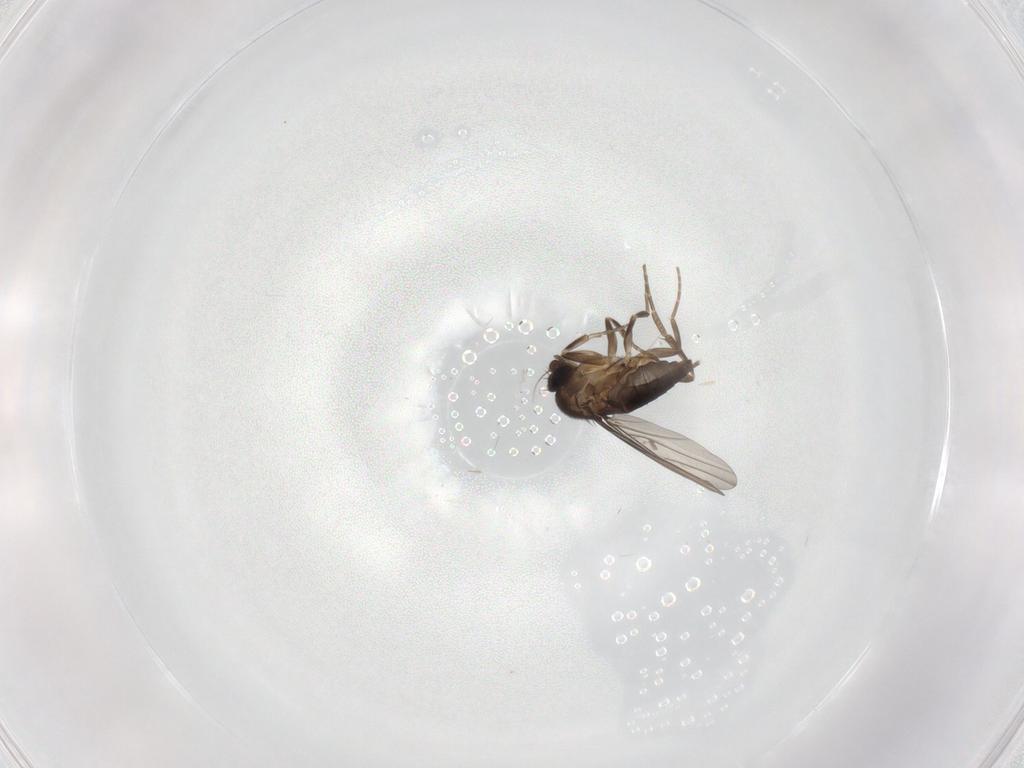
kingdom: Animalia
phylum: Arthropoda
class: Insecta
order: Diptera
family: Phoridae
